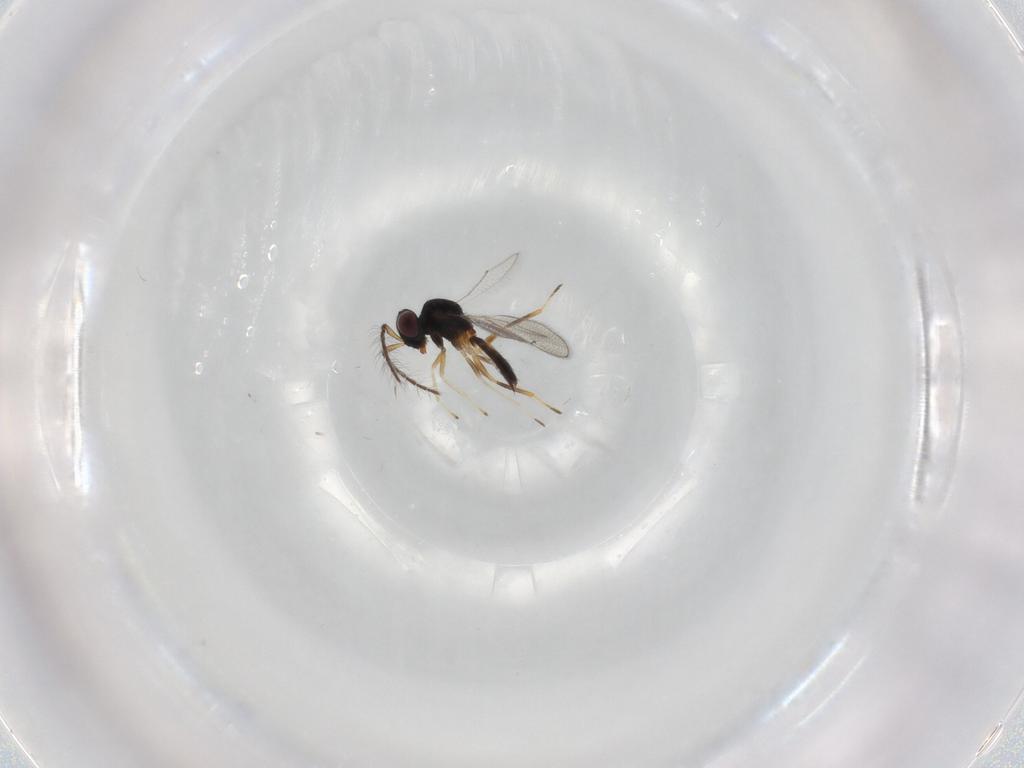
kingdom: Animalia
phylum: Arthropoda
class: Insecta
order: Hymenoptera
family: Eulophidae
